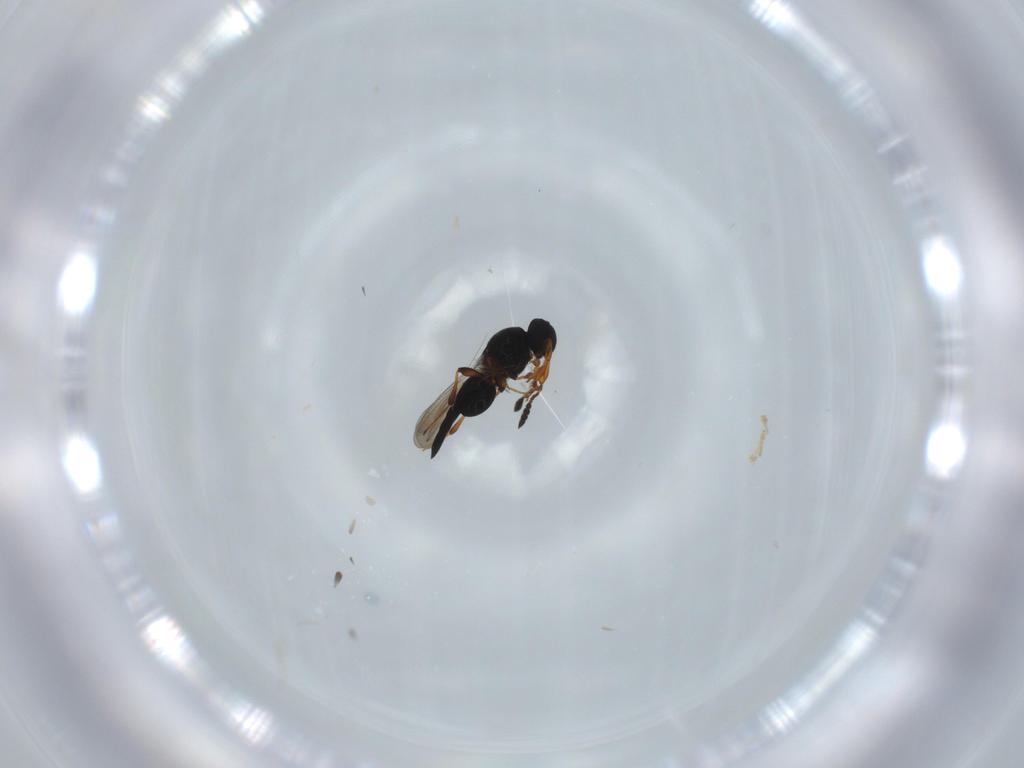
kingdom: Animalia
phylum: Arthropoda
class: Insecta
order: Hymenoptera
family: Platygastridae
